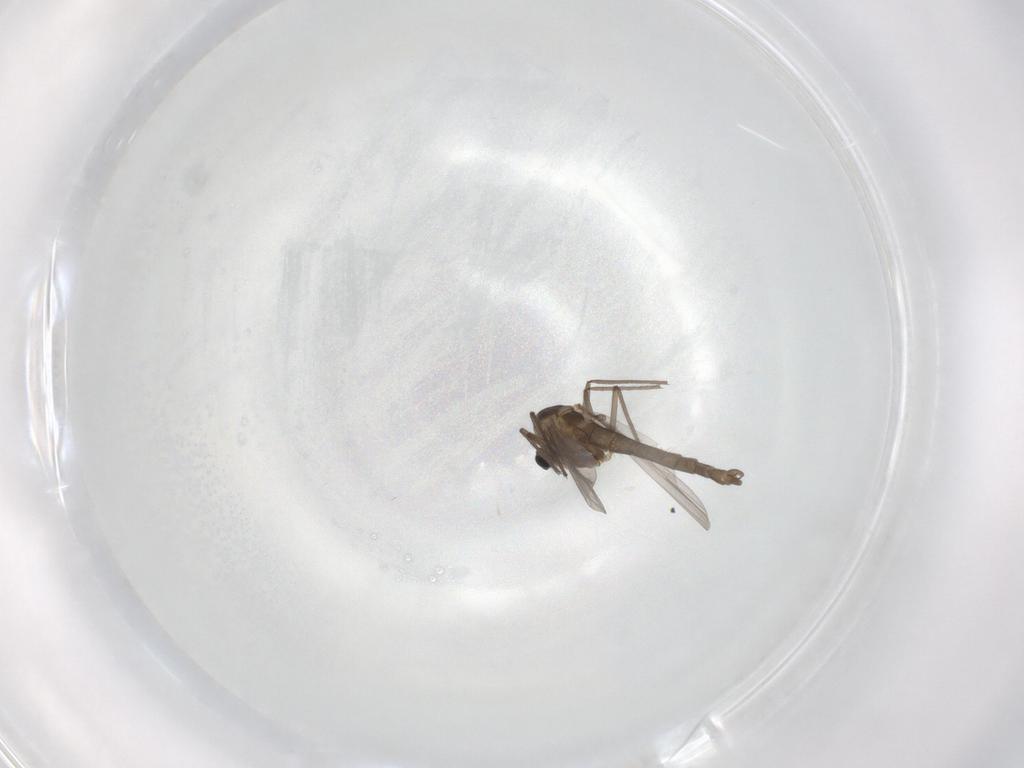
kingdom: Animalia
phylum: Arthropoda
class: Insecta
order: Diptera
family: Chironomidae
